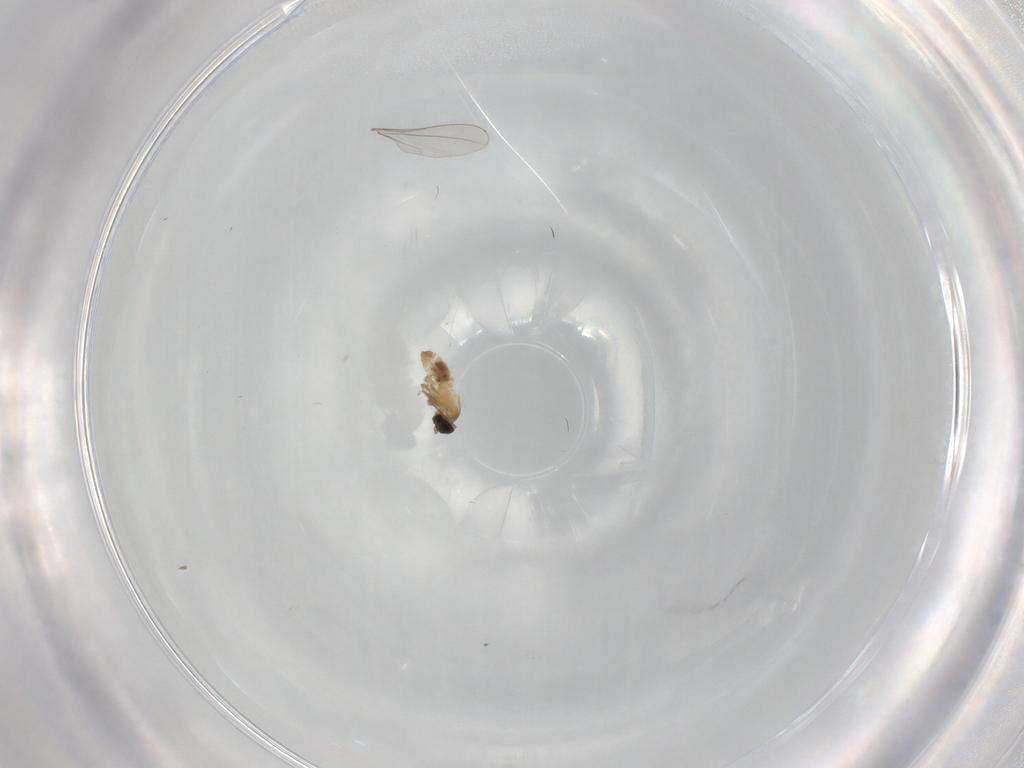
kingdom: Animalia
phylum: Arthropoda
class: Insecta
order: Diptera
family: Cecidomyiidae
